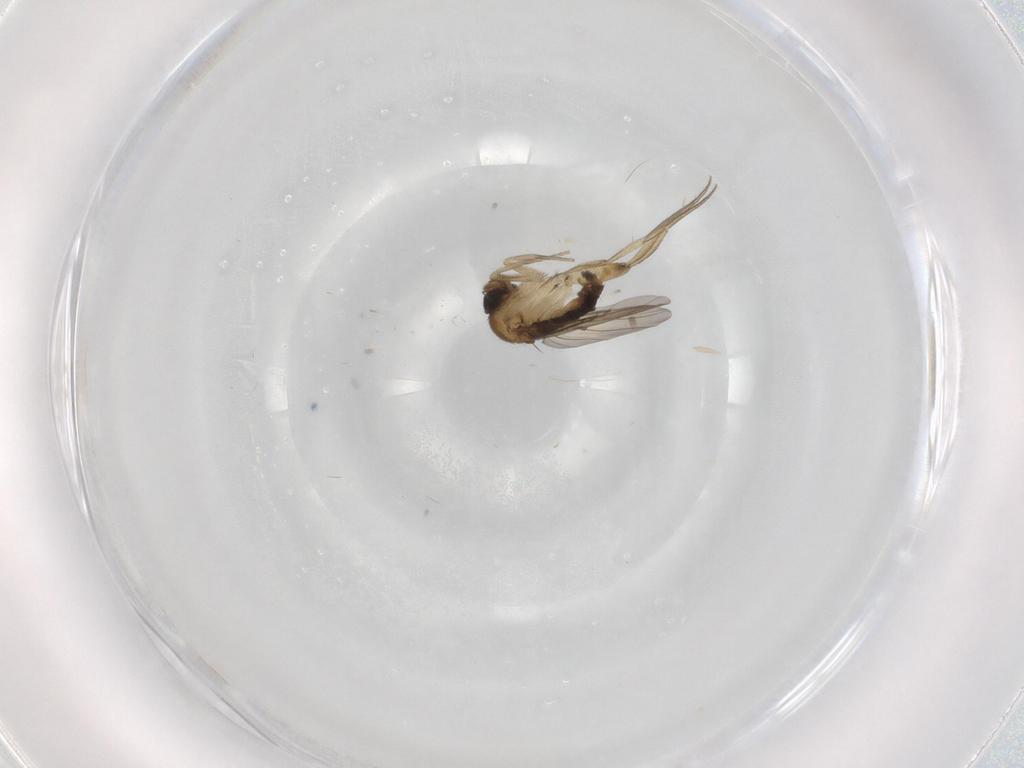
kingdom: Animalia
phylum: Arthropoda
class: Insecta
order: Diptera
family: Phoridae
